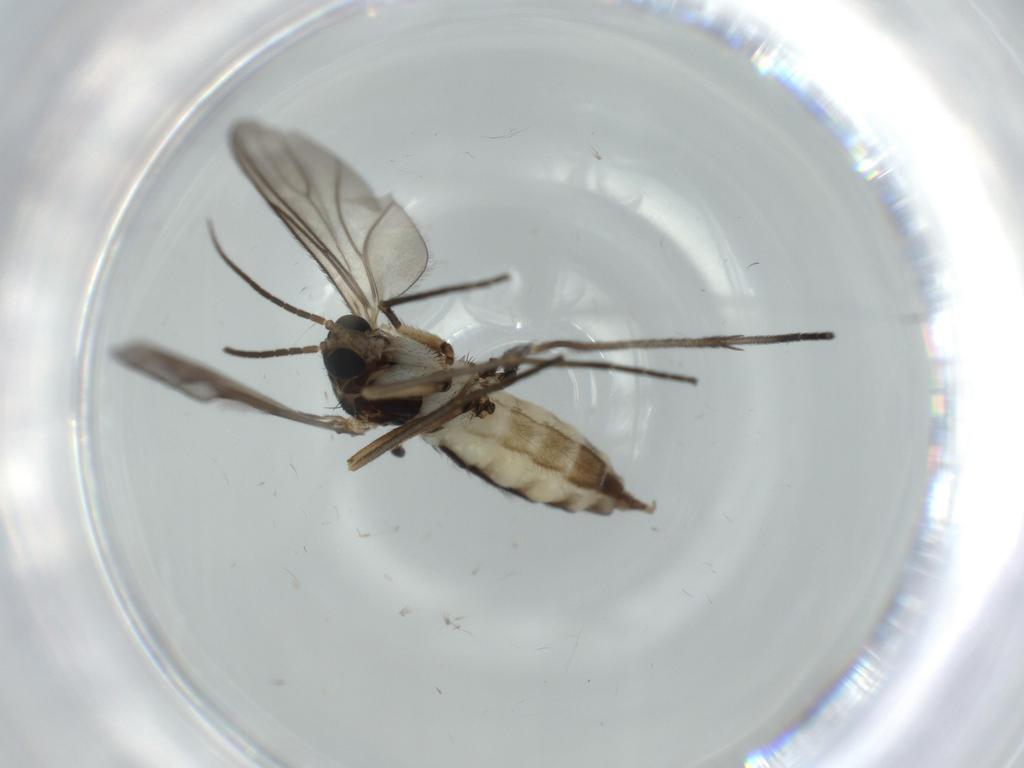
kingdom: Animalia
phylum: Arthropoda
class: Insecta
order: Diptera
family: Sciaridae
